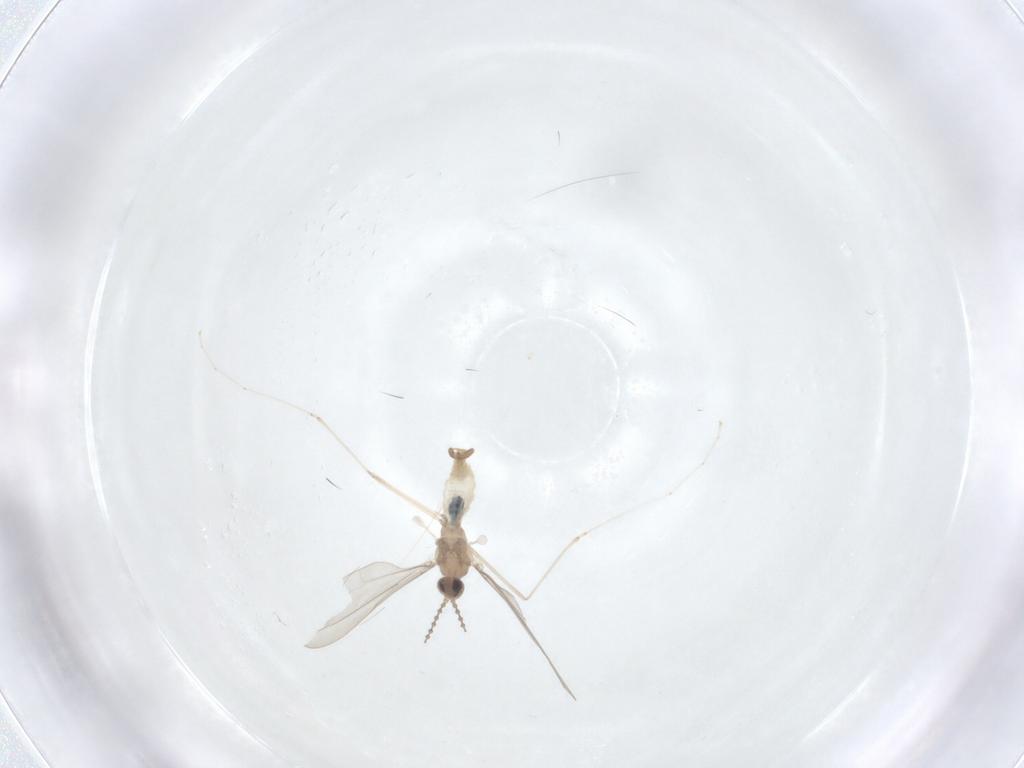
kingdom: Animalia
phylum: Arthropoda
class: Insecta
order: Diptera
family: Cecidomyiidae
